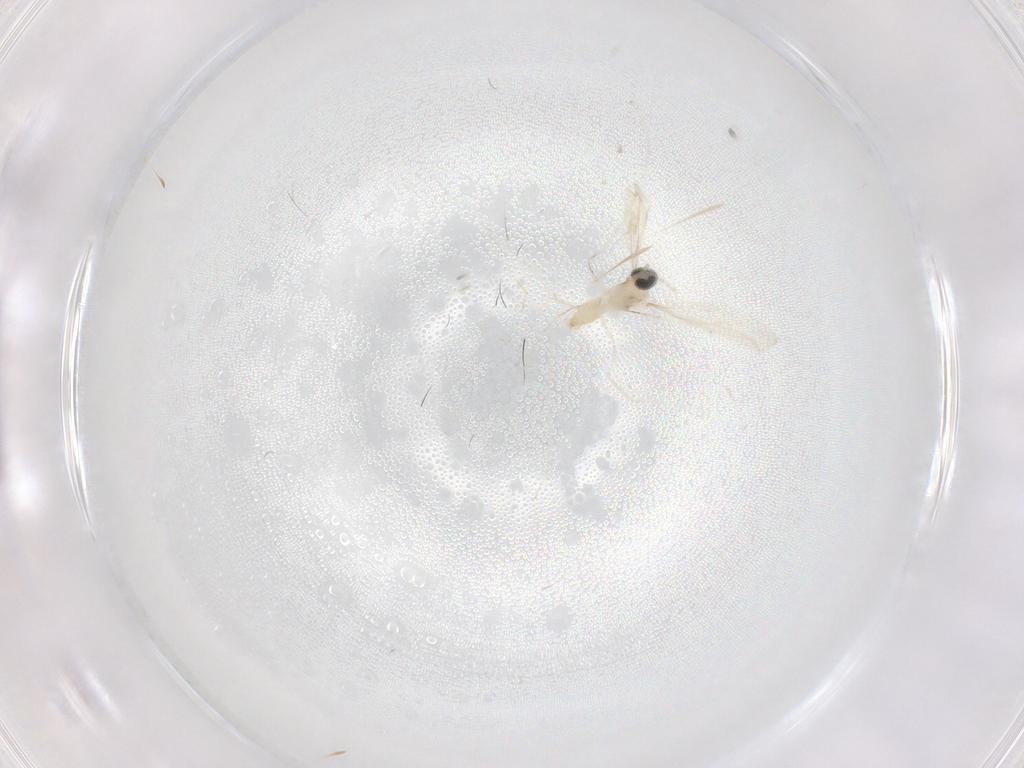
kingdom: Animalia
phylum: Arthropoda
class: Insecta
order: Diptera
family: Cecidomyiidae
